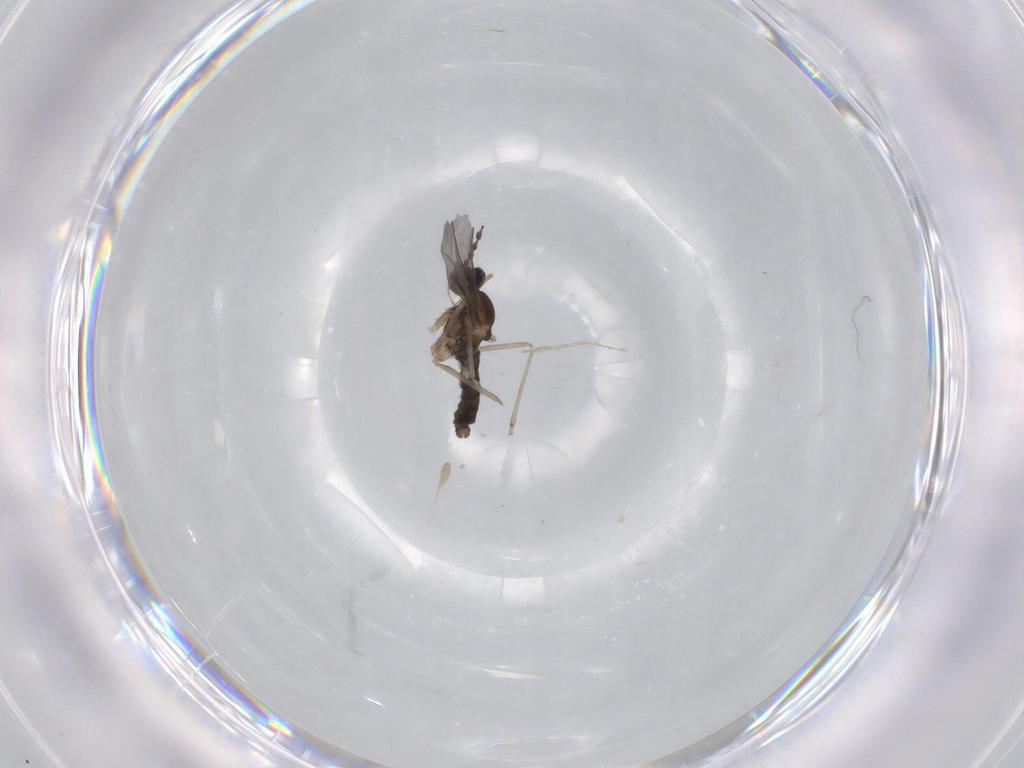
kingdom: Animalia
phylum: Arthropoda
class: Insecta
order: Diptera
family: Cecidomyiidae
